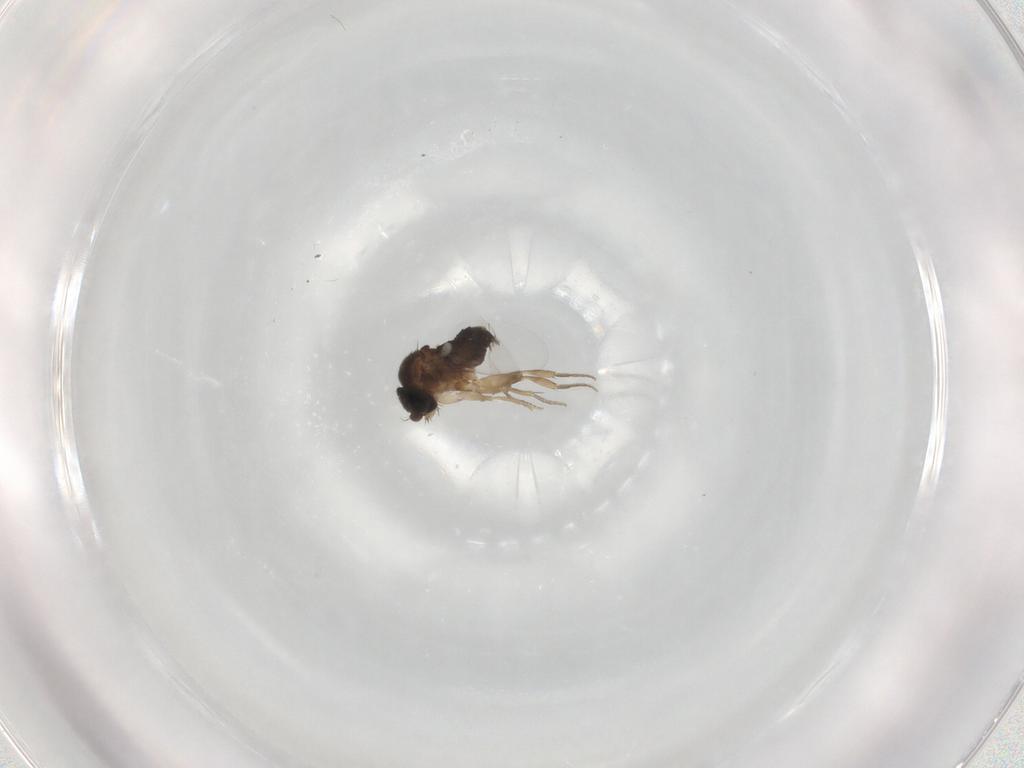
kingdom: Animalia
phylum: Arthropoda
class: Insecta
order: Diptera
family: Phoridae
